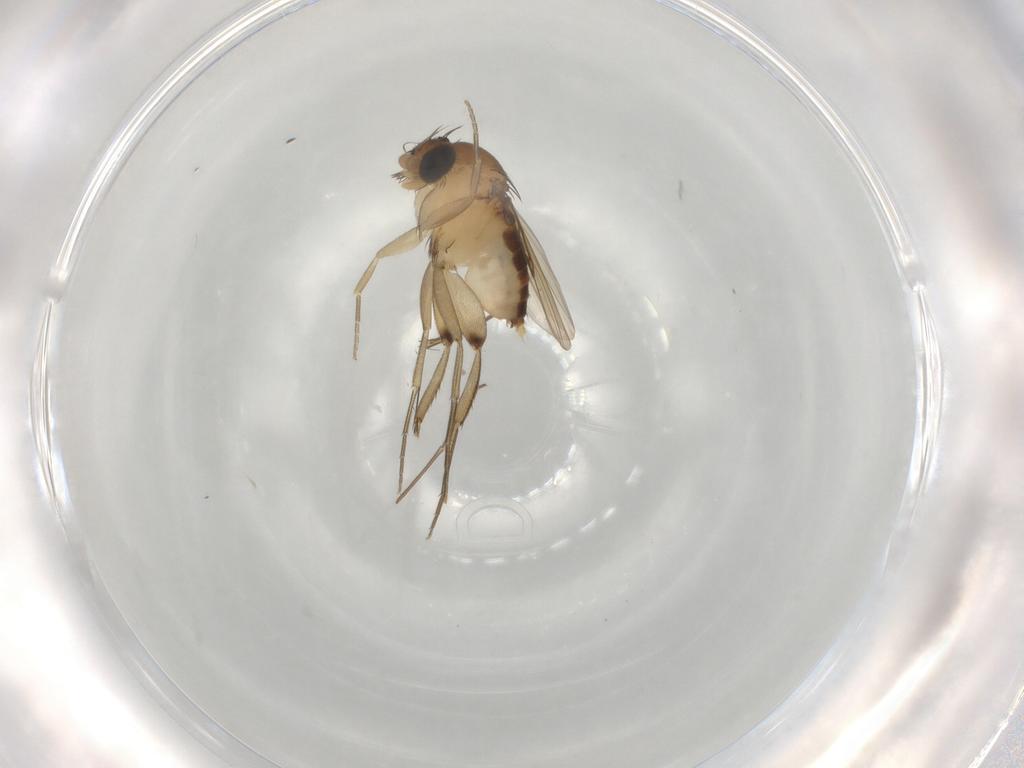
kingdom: Animalia
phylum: Arthropoda
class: Insecta
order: Diptera
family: Phoridae
